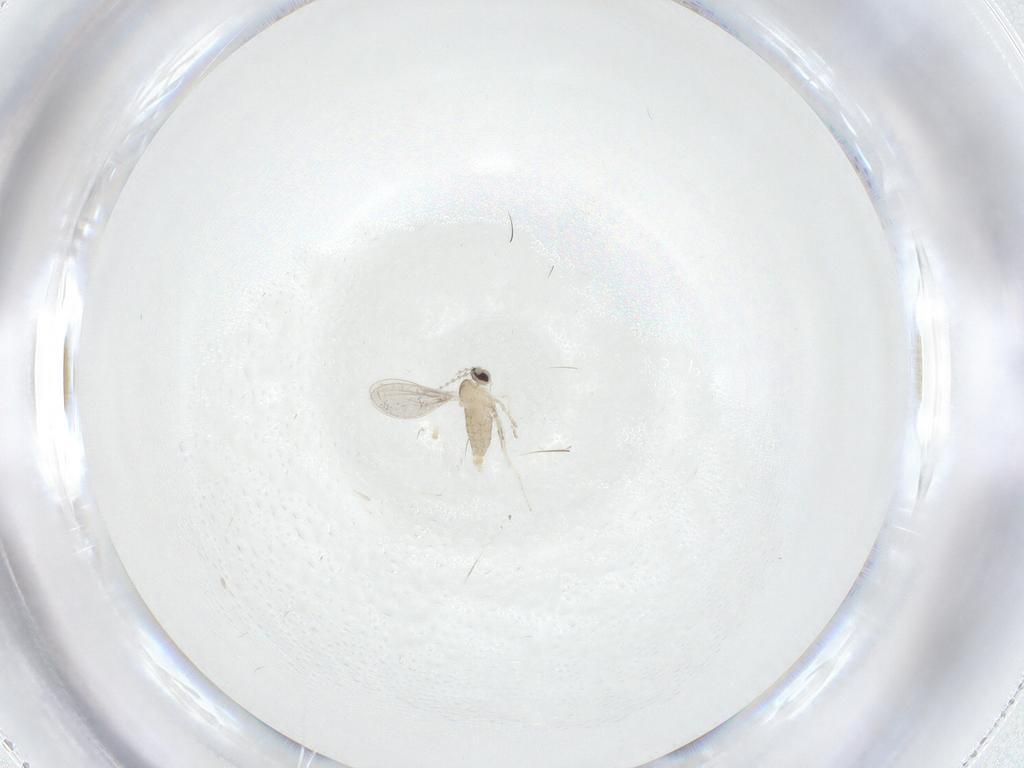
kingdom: Animalia
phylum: Arthropoda
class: Insecta
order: Diptera
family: Cecidomyiidae
